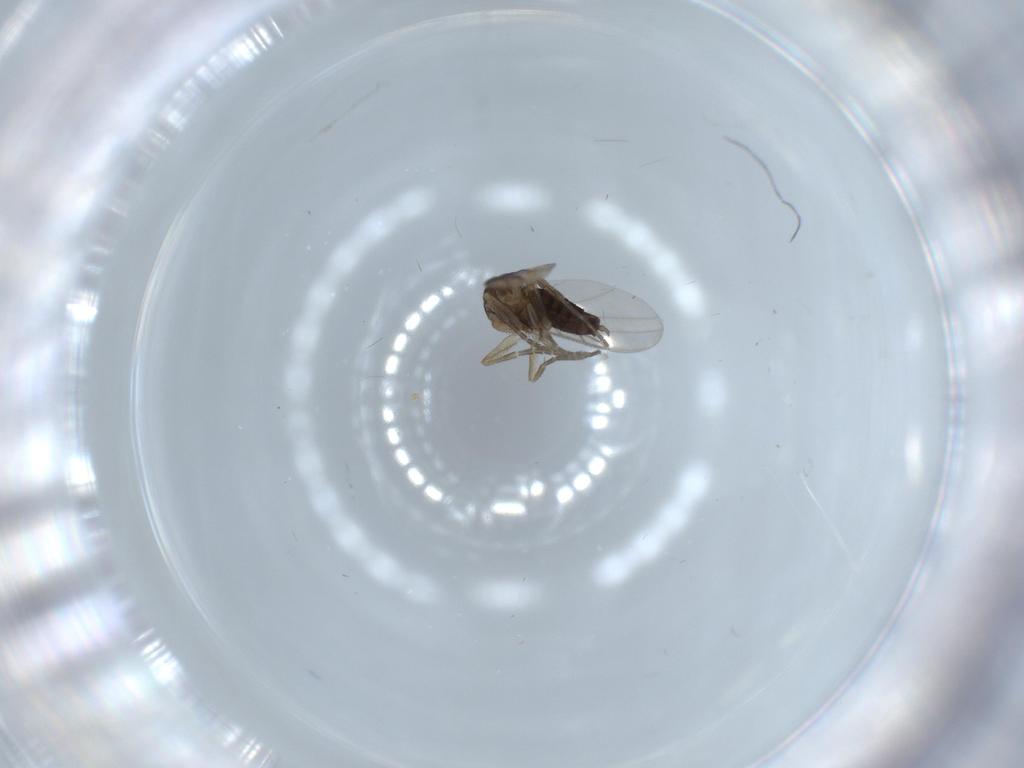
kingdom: Animalia
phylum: Arthropoda
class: Insecta
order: Diptera
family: Phoridae
